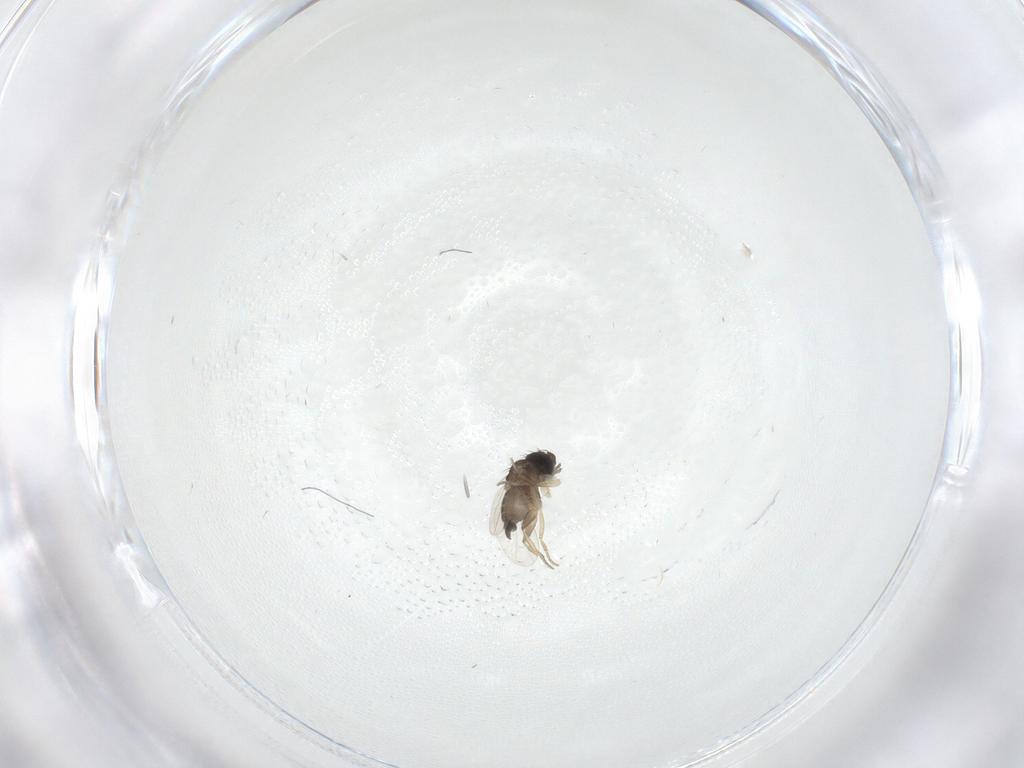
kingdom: Animalia
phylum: Arthropoda
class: Insecta
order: Diptera
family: Phoridae
